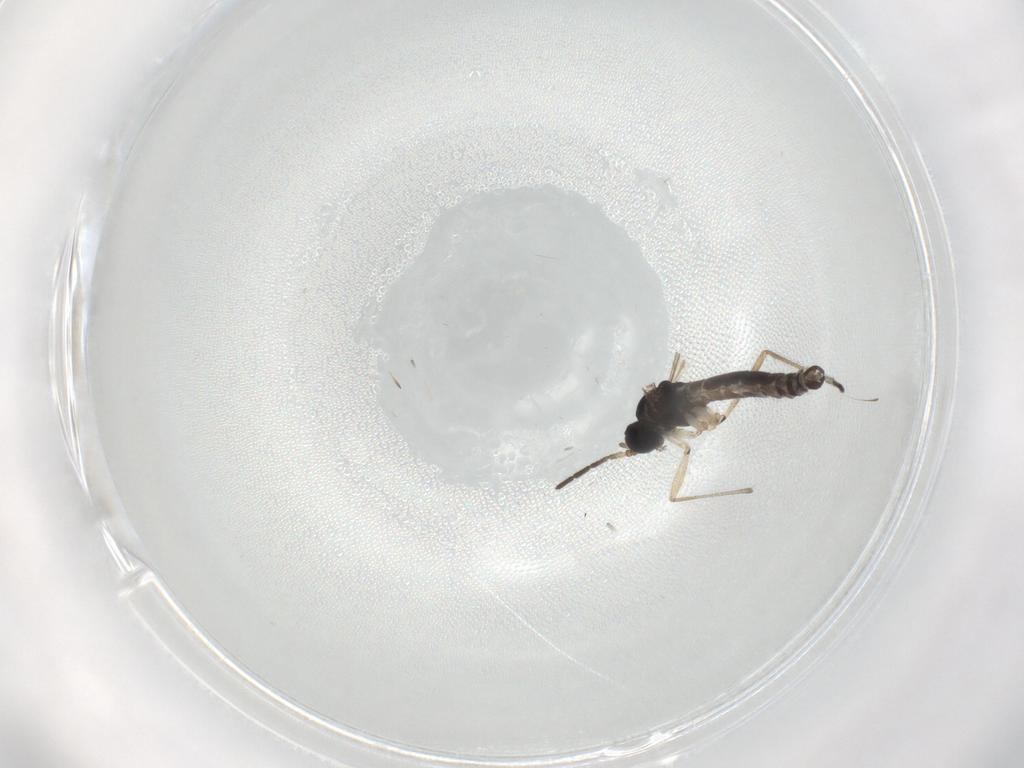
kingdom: Animalia
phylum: Arthropoda
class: Insecta
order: Diptera
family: Sciaridae
